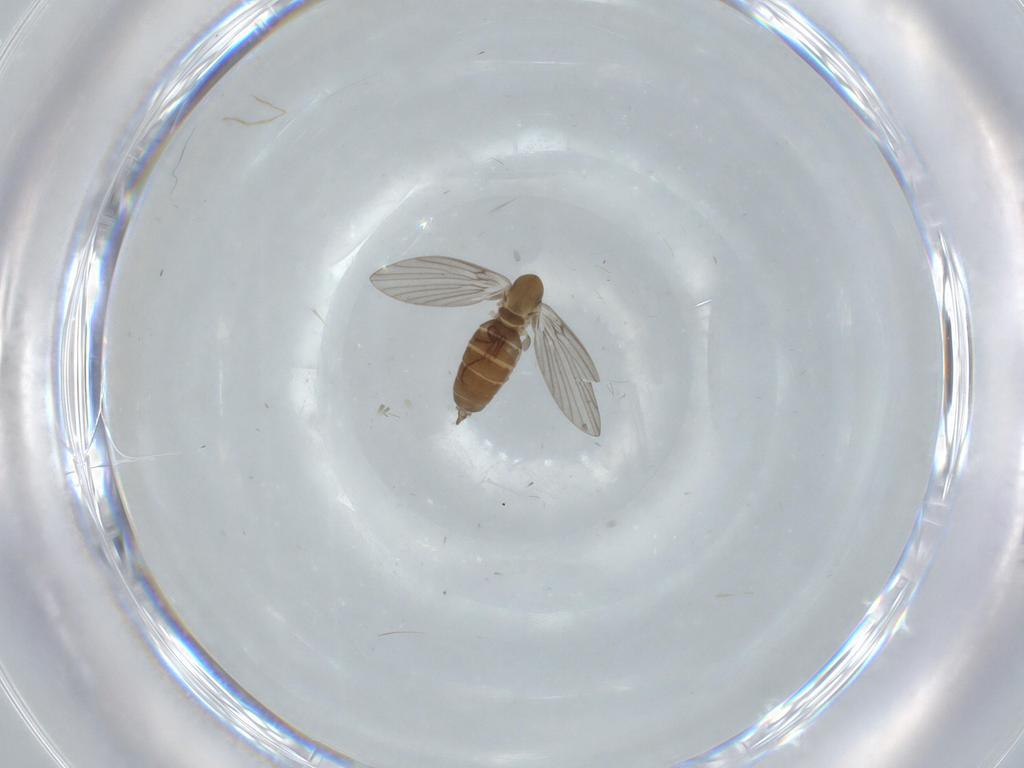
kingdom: Animalia
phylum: Arthropoda
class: Insecta
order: Diptera
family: Psychodidae
